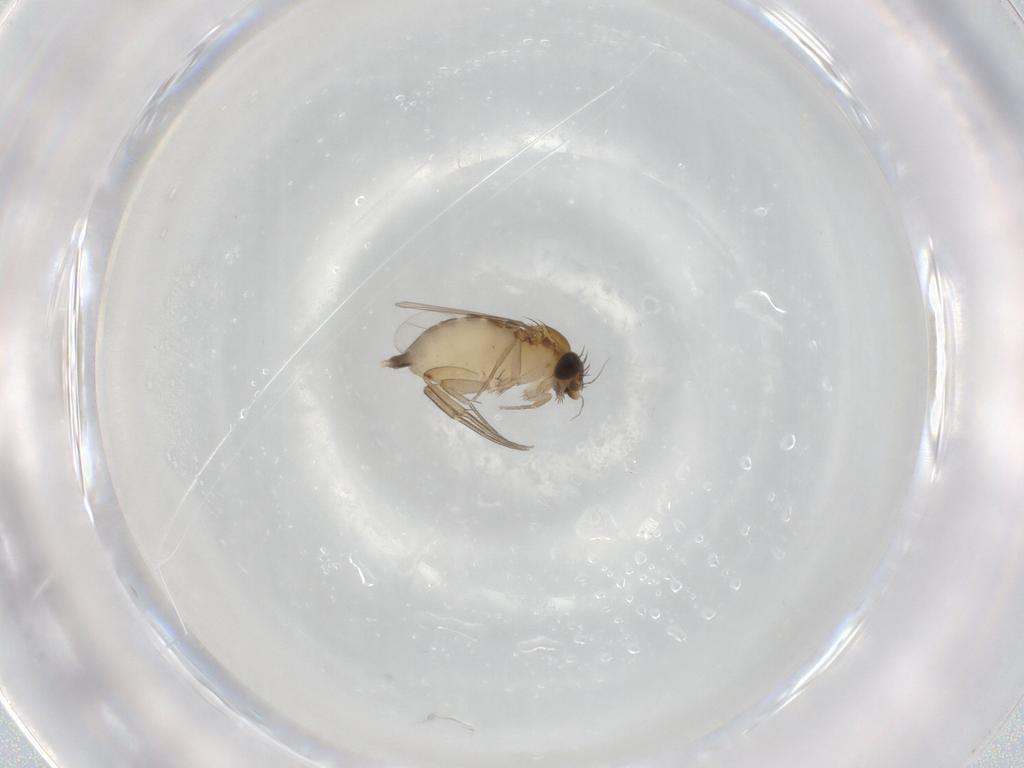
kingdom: Animalia
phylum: Arthropoda
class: Insecta
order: Diptera
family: Phoridae
